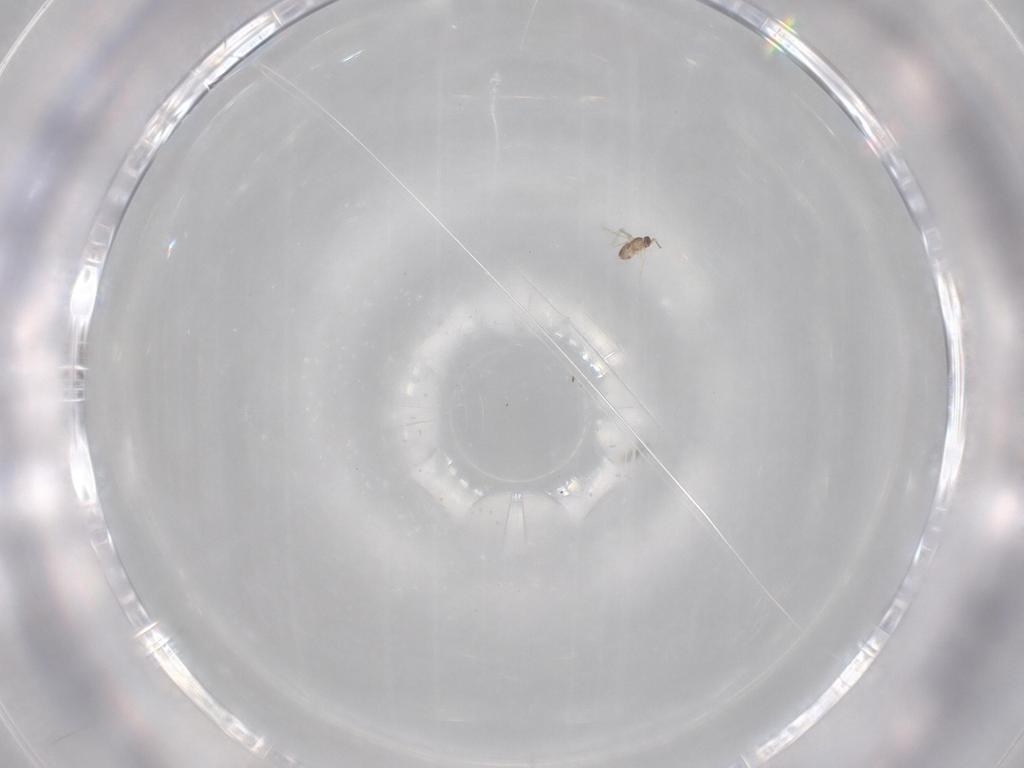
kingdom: Animalia
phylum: Arthropoda
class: Insecta
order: Hymenoptera
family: Mymaridae
